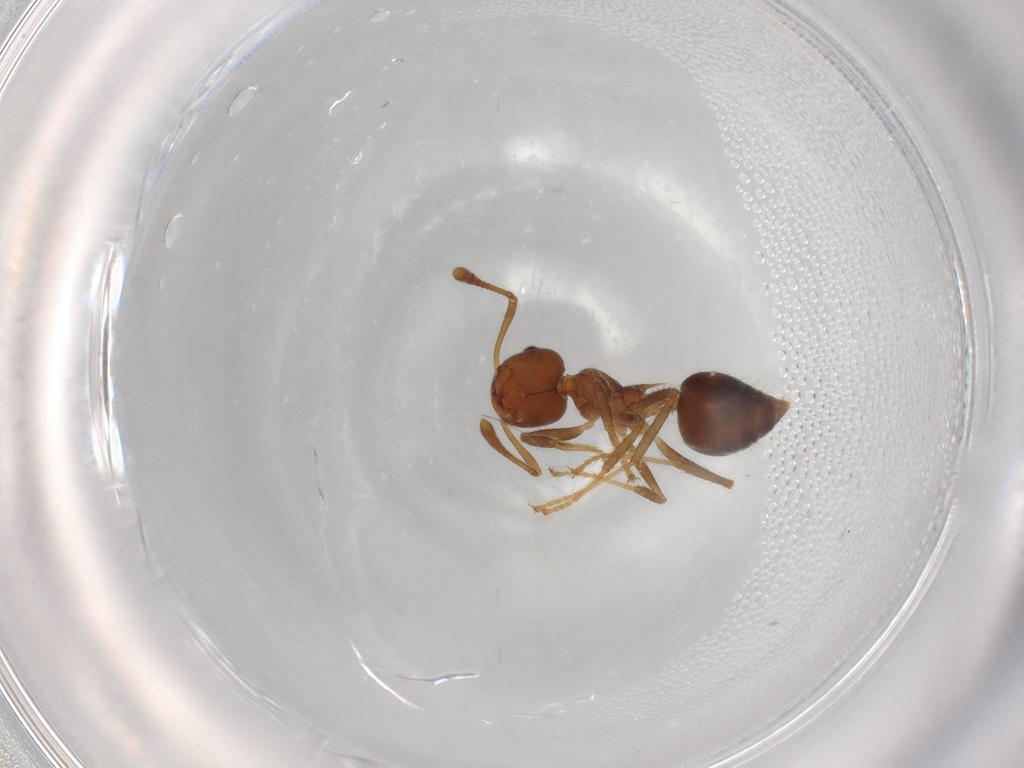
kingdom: Animalia
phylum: Arthropoda
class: Insecta
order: Hymenoptera
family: Formicidae
